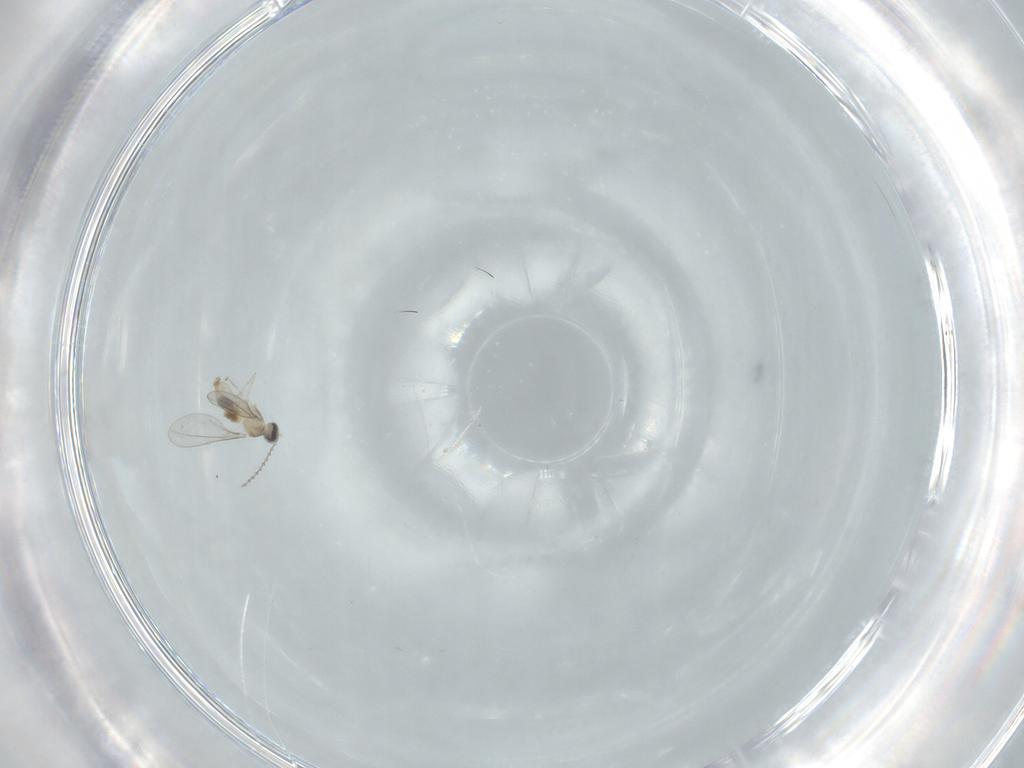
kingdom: Animalia
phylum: Arthropoda
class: Insecta
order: Diptera
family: Cecidomyiidae
